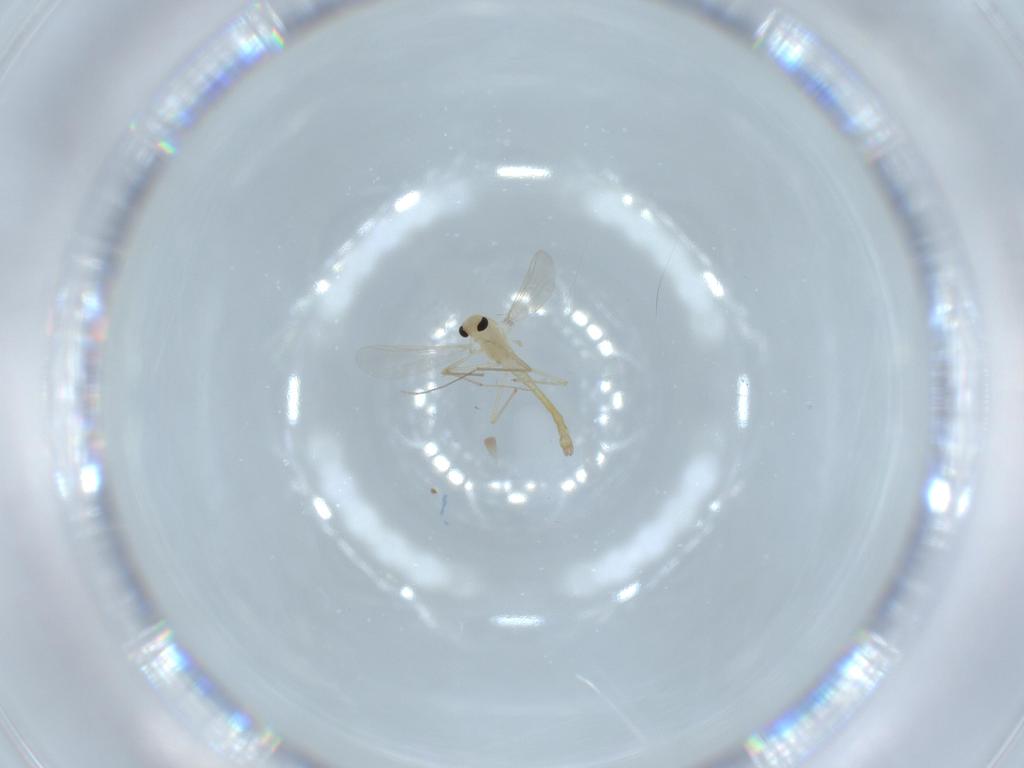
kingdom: Animalia
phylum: Arthropoda
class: Insecta
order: Diptera
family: Chironomidae
